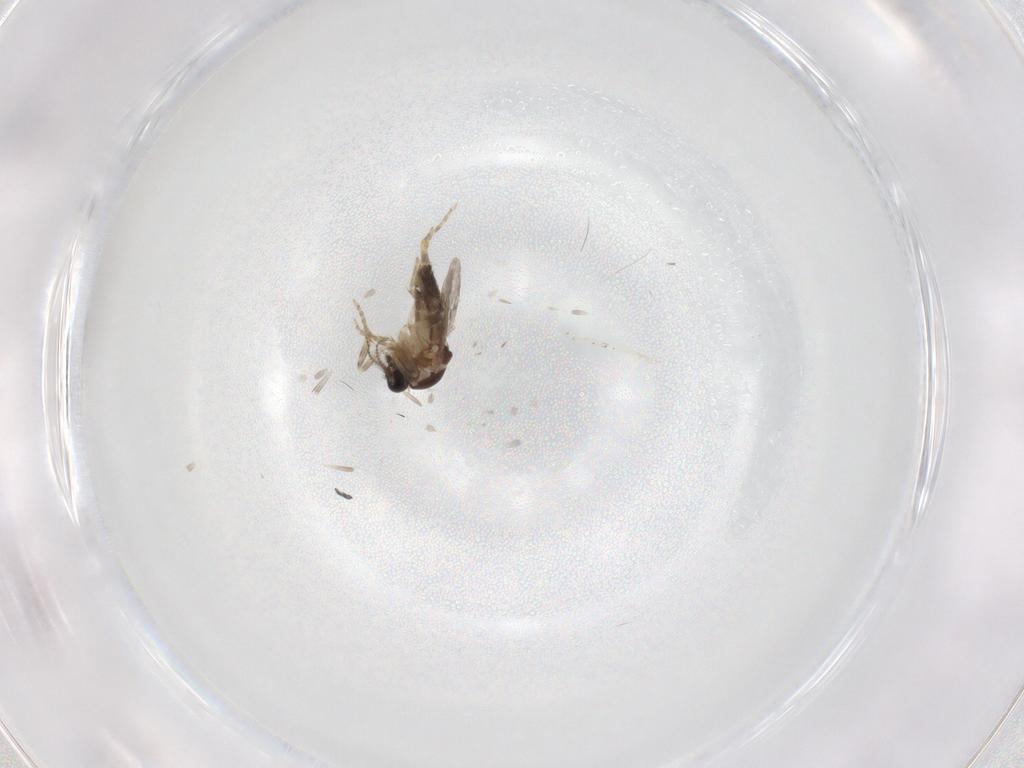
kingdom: Animalia
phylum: Arthropoda
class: Insecta
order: Diptera
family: Ceratopogonidae
